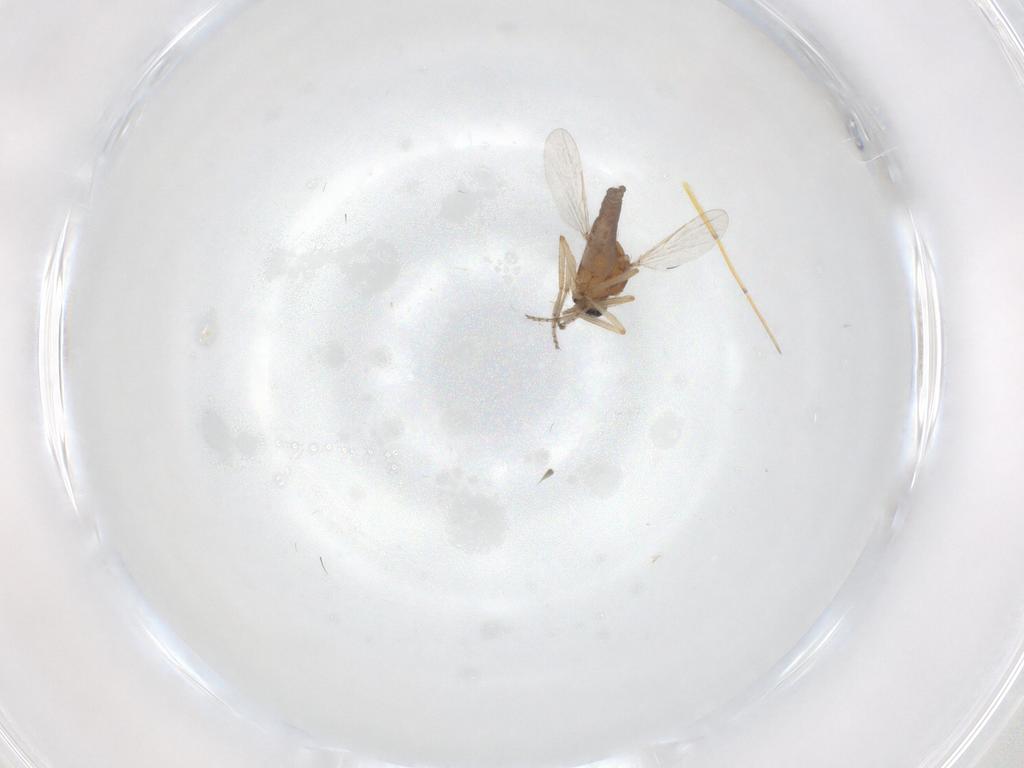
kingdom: Animalia
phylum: Arthropoda
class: Insecta
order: Diptera
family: Ceratopogonidae
